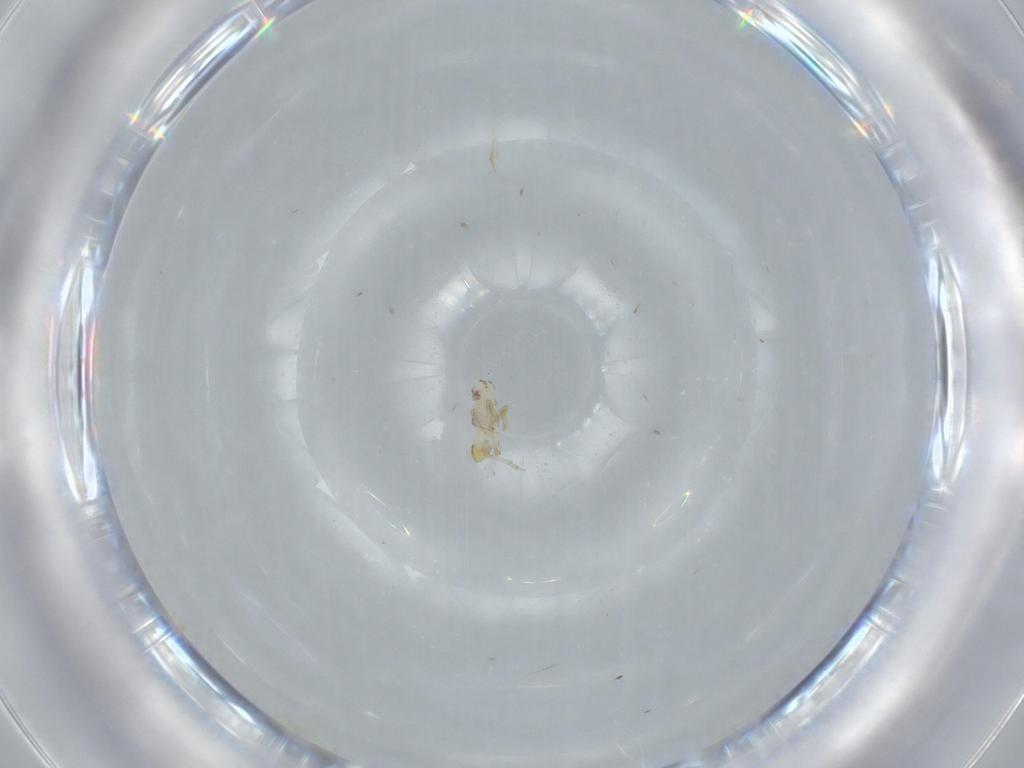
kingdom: Animalia
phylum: Arthropoda
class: Insecta
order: Hemiptera
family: Delphacidae
